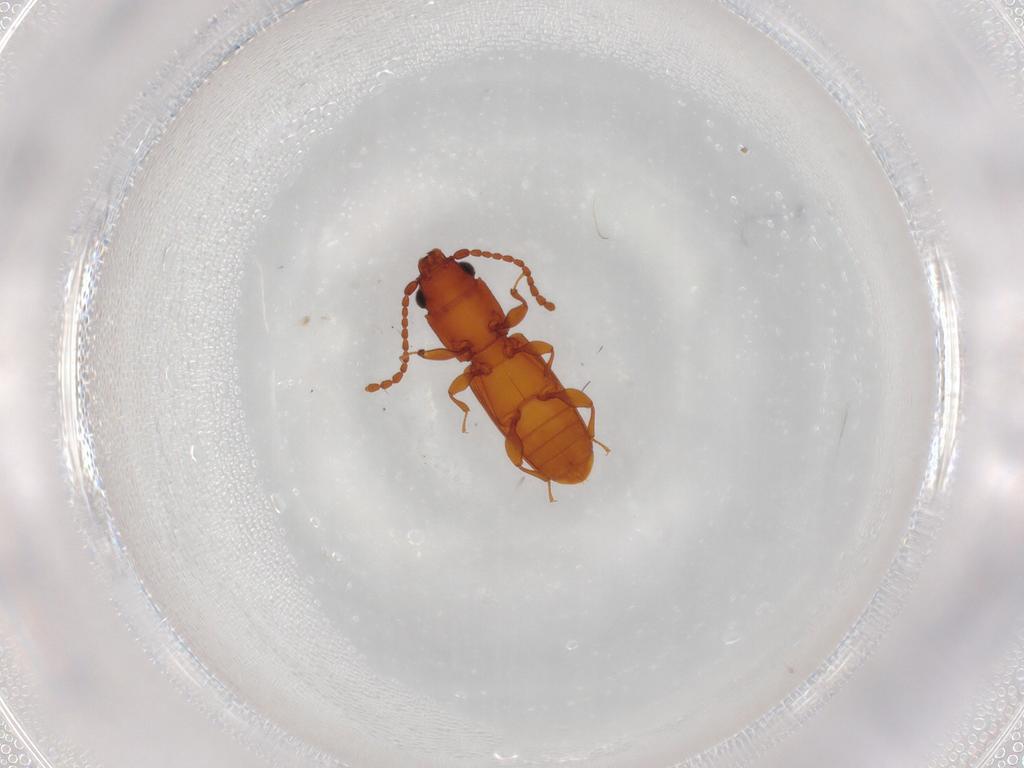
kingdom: Animalia
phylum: Arthropoda
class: Insecta
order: Coleoptera
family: Laemophloeidae
